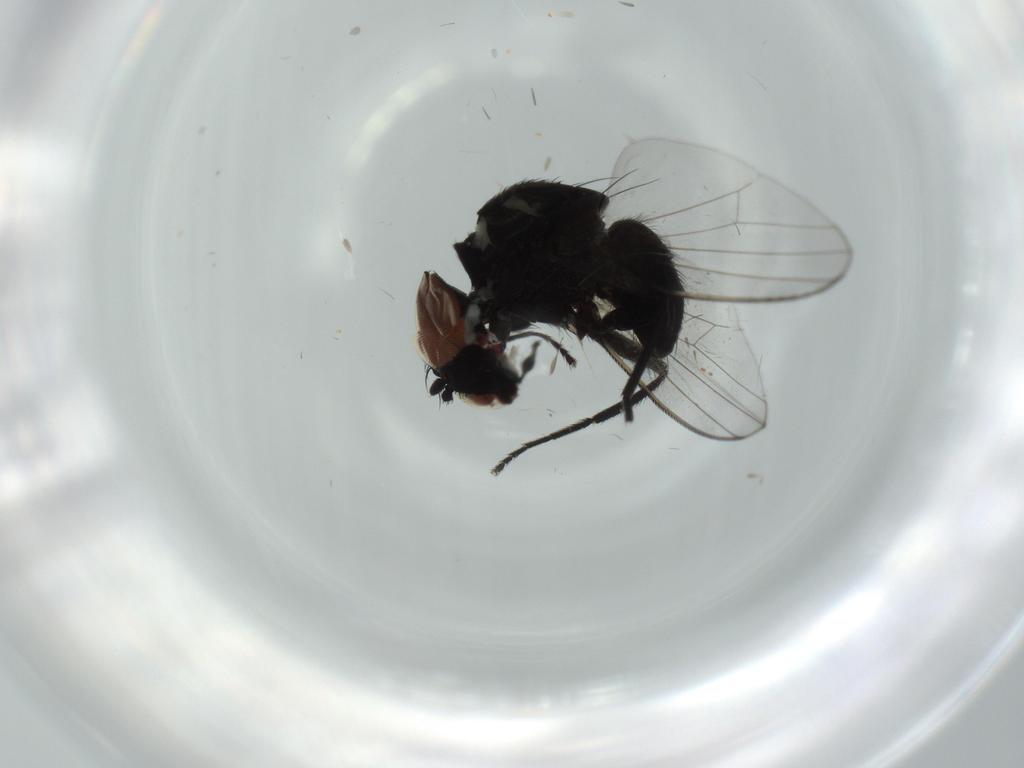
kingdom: Animalia
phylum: Arthropoda
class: Insecta
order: Diptera
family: Milichiidae
